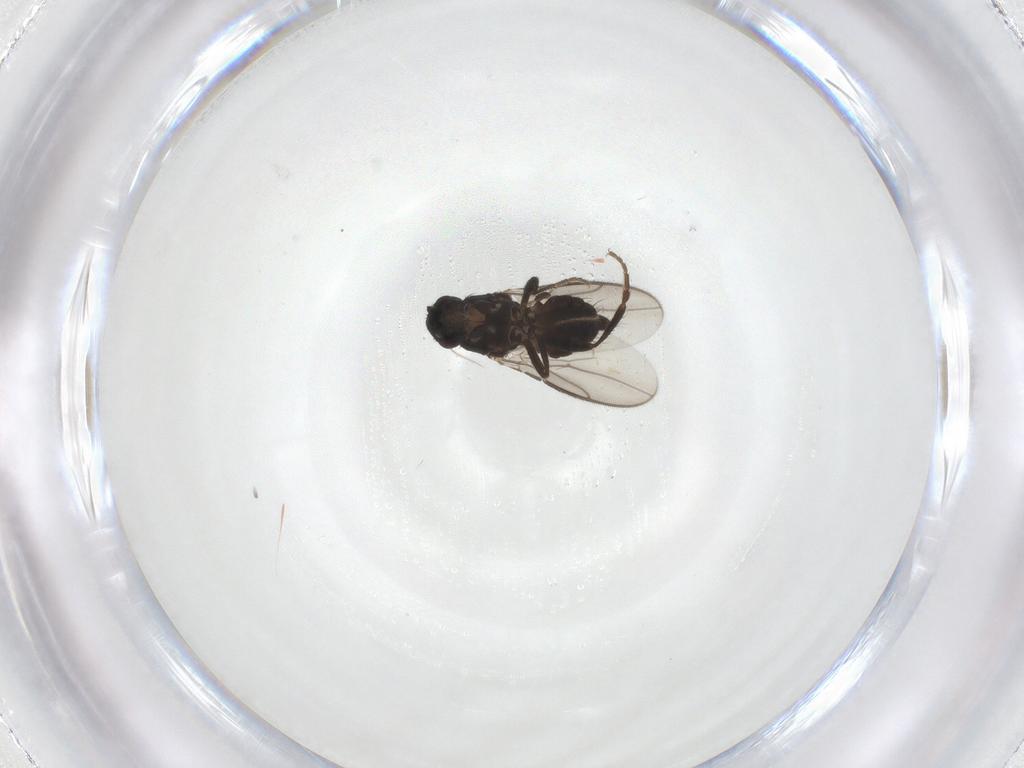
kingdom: Animalia
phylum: Arthropoda
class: Insecta
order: Diptera
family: Sphaeroceridae
